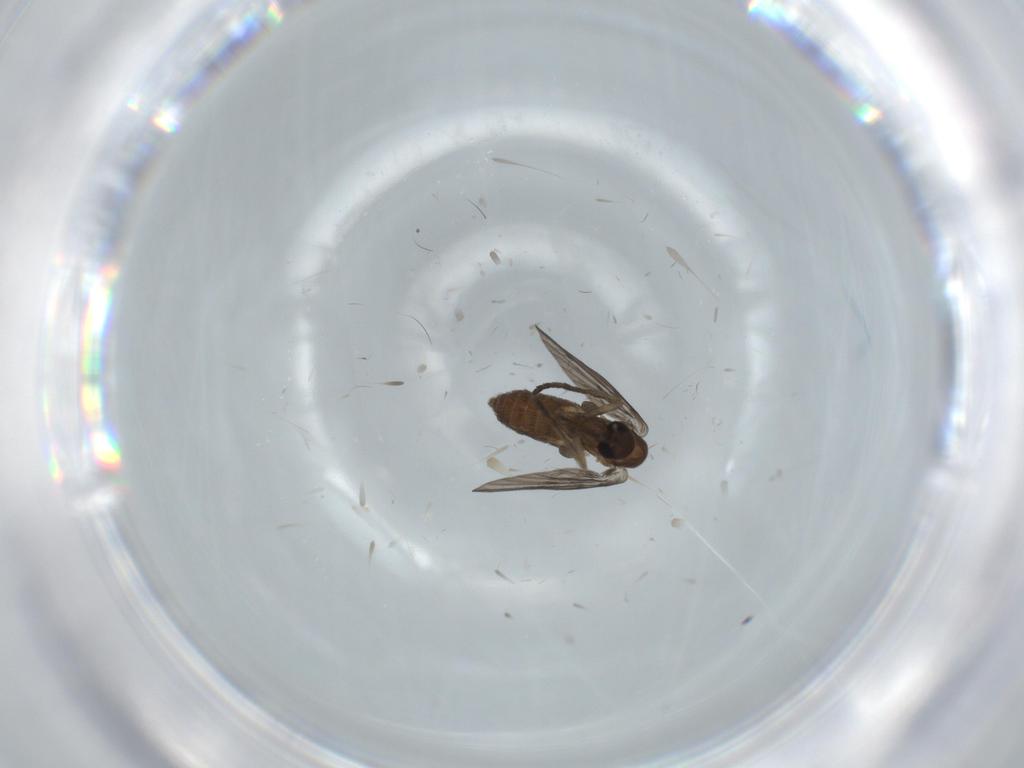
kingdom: Animalia
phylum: Arthropoda
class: Insecta
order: Diptera
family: Psychodidae
